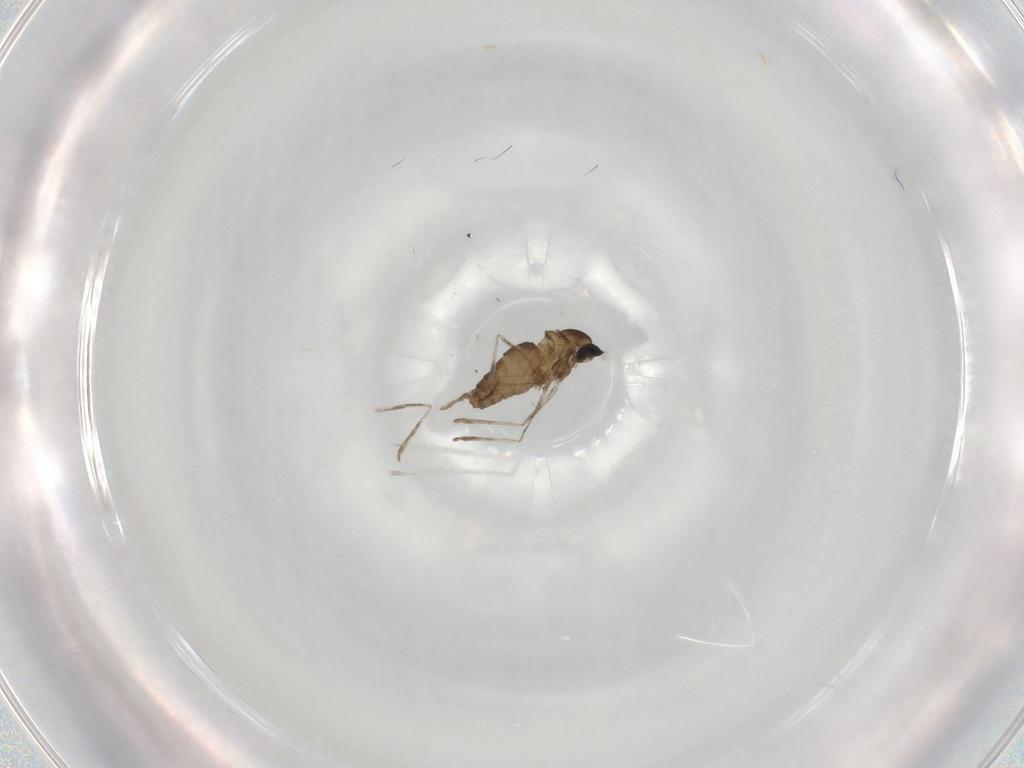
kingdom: Animalia
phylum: Arthropoda
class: Insecta
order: Diptera
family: Cecidomyiidae
